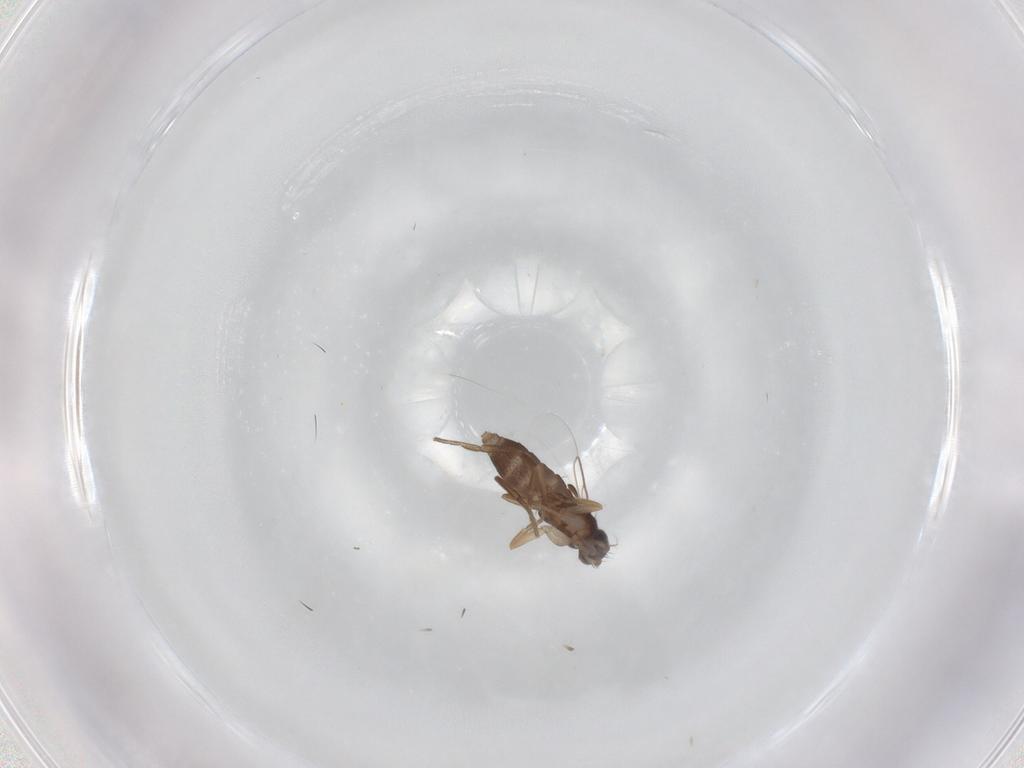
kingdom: Animalia
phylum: Arthropoda
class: Insecta
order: Diptera
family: Phoridae
